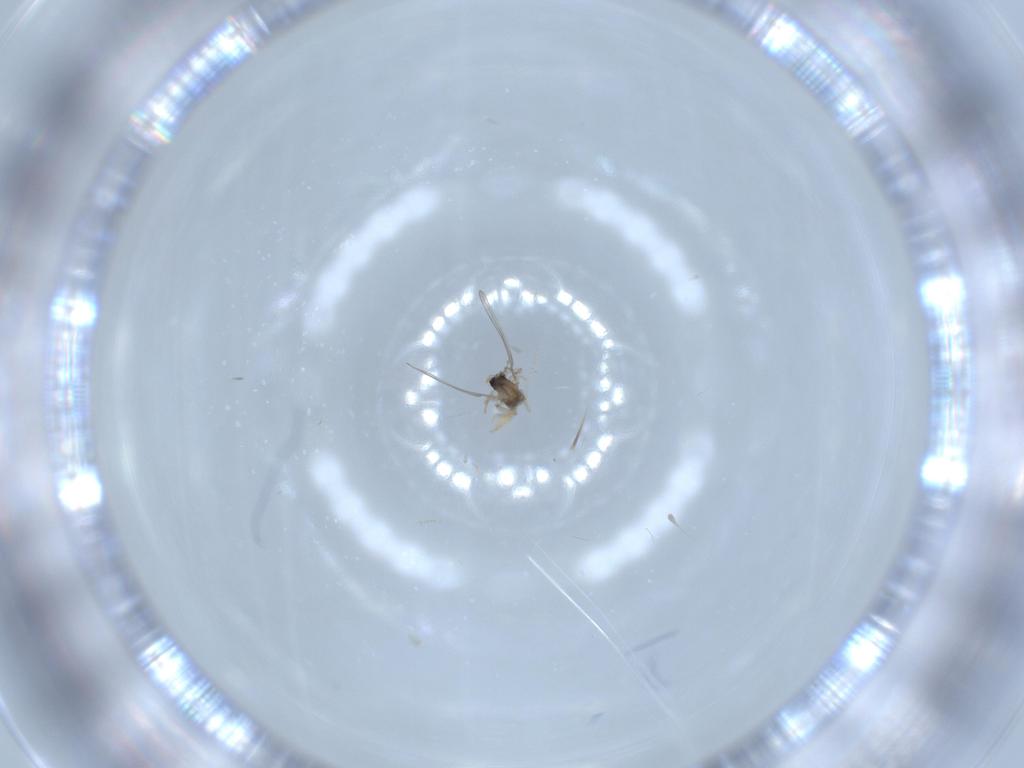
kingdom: Animalia
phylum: Arthropoda
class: Insecta
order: Diptera
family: Cecidomyiidae
